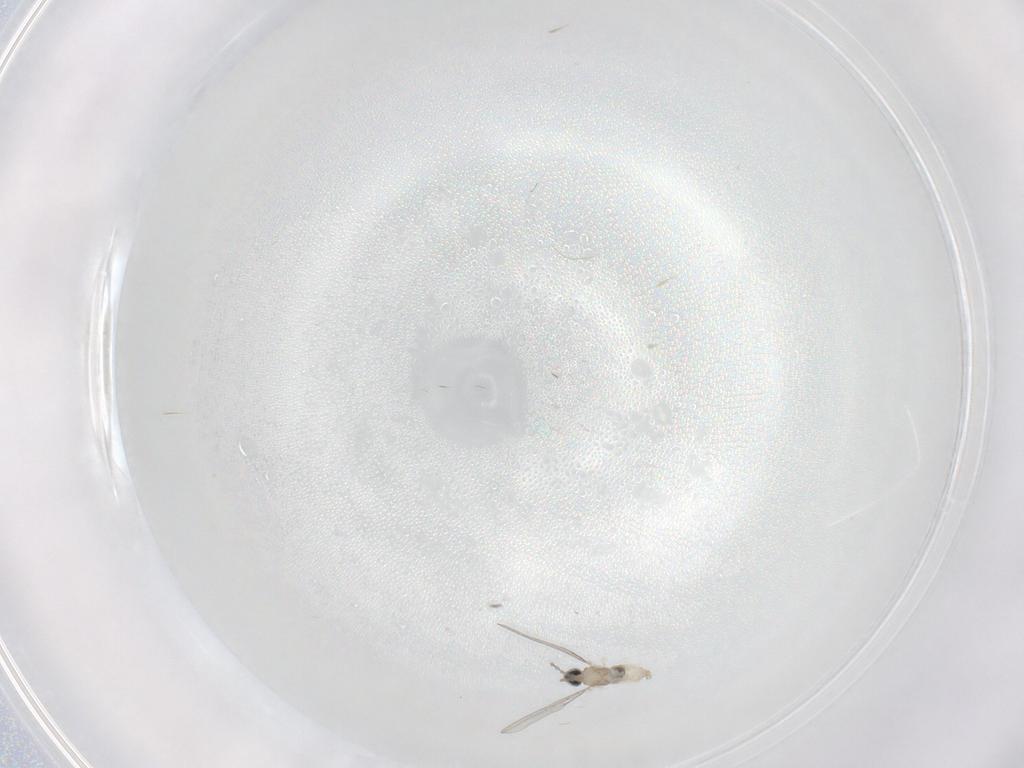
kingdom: Animalia
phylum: Arthropoda
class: Insecta
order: Diptera
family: Cecidomyiidae
